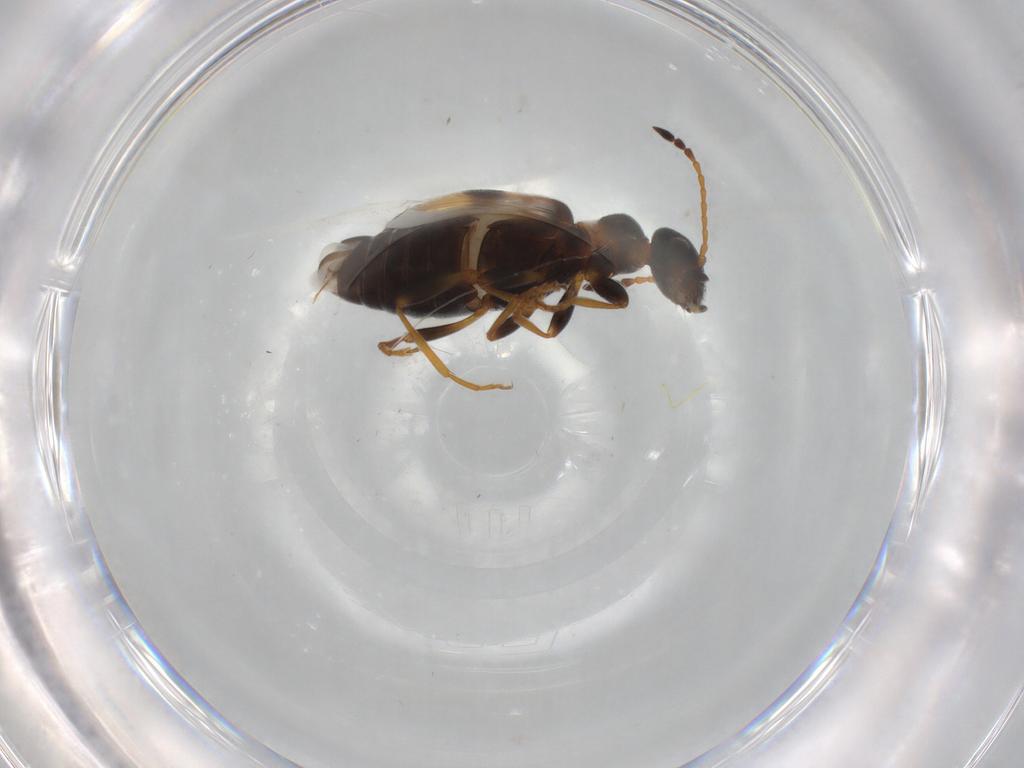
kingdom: Animalia
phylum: Arthropoda
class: Insecta
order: Coleoptera
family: Anthicidae
